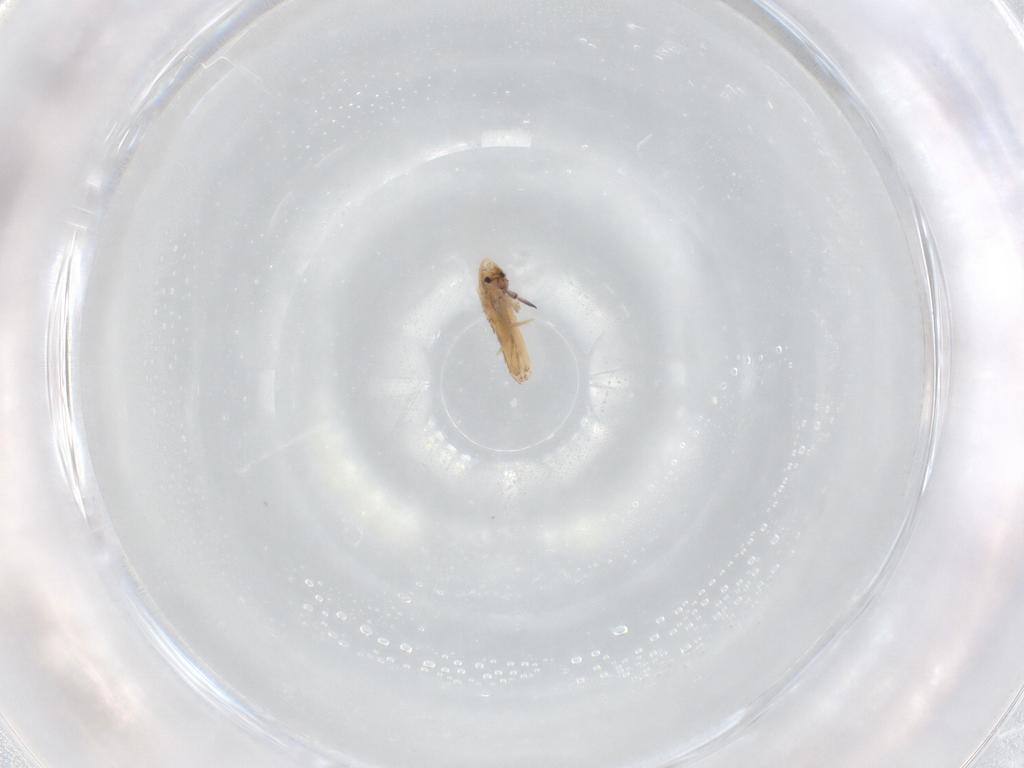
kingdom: Animalia
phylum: Arthropoda
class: Collembola
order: Entomobryomorpha
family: Entomobryidae
